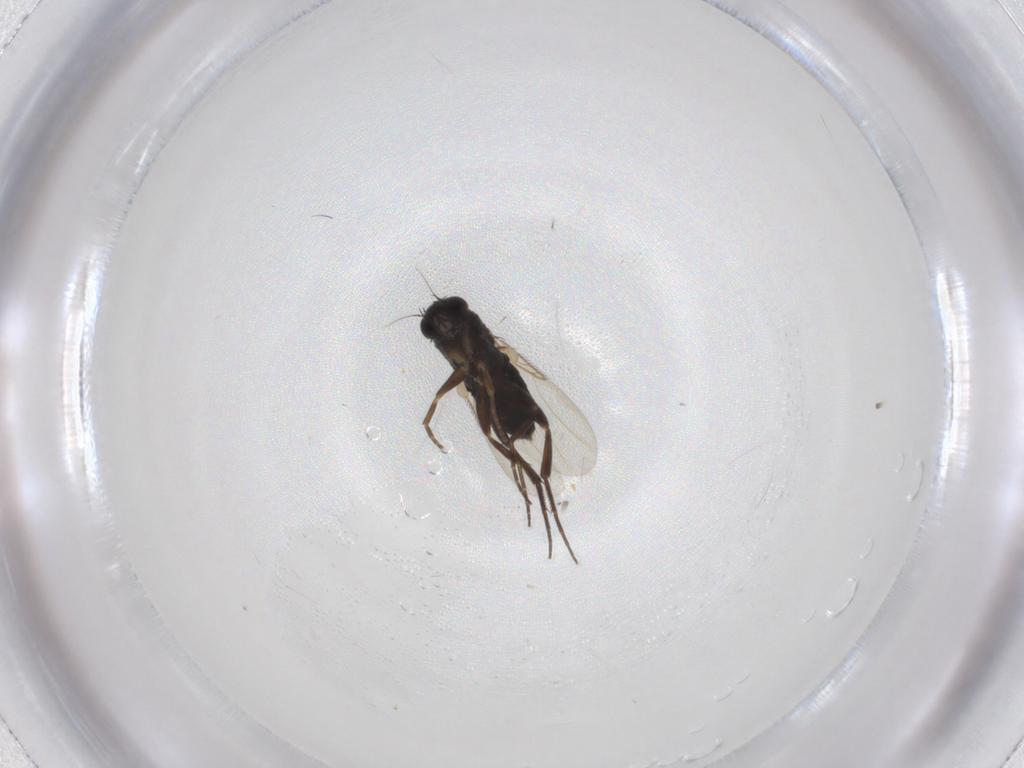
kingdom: Animalia
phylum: Arthropoda
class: Insecta
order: Diptera
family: Phoridae
